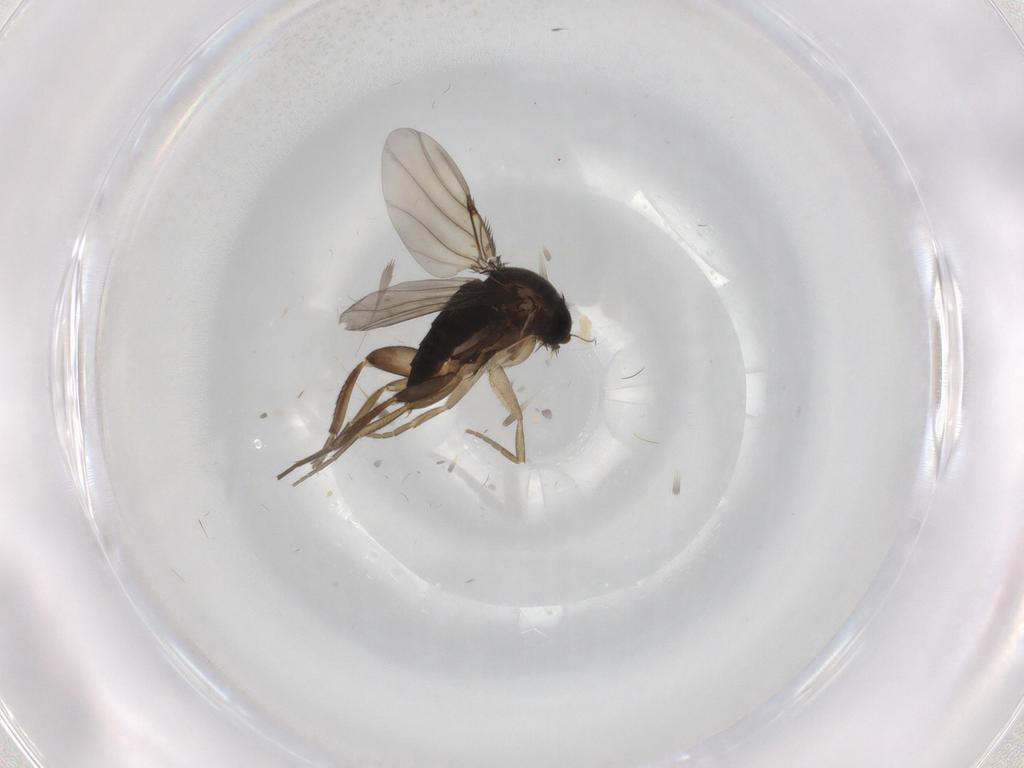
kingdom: Animalia
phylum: Arthropoda
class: Insecta
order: Diptera
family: Phoridae
